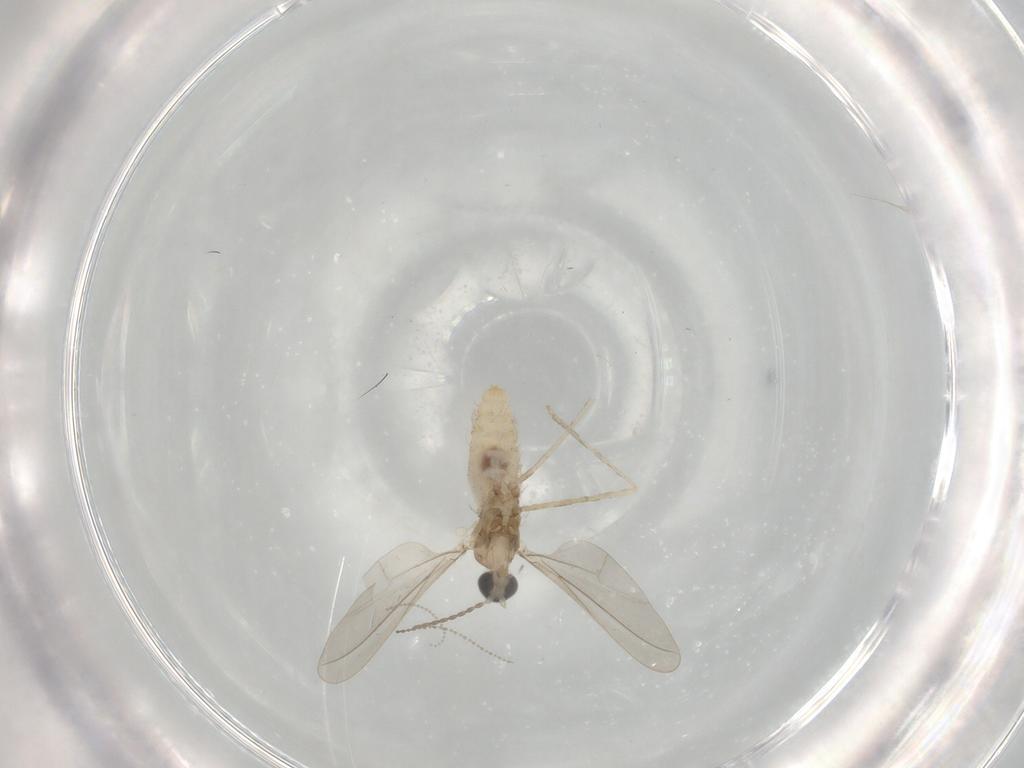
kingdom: Animalia
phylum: Arthropoda
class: Insecta
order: Diptera
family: Cecidomyiidae
